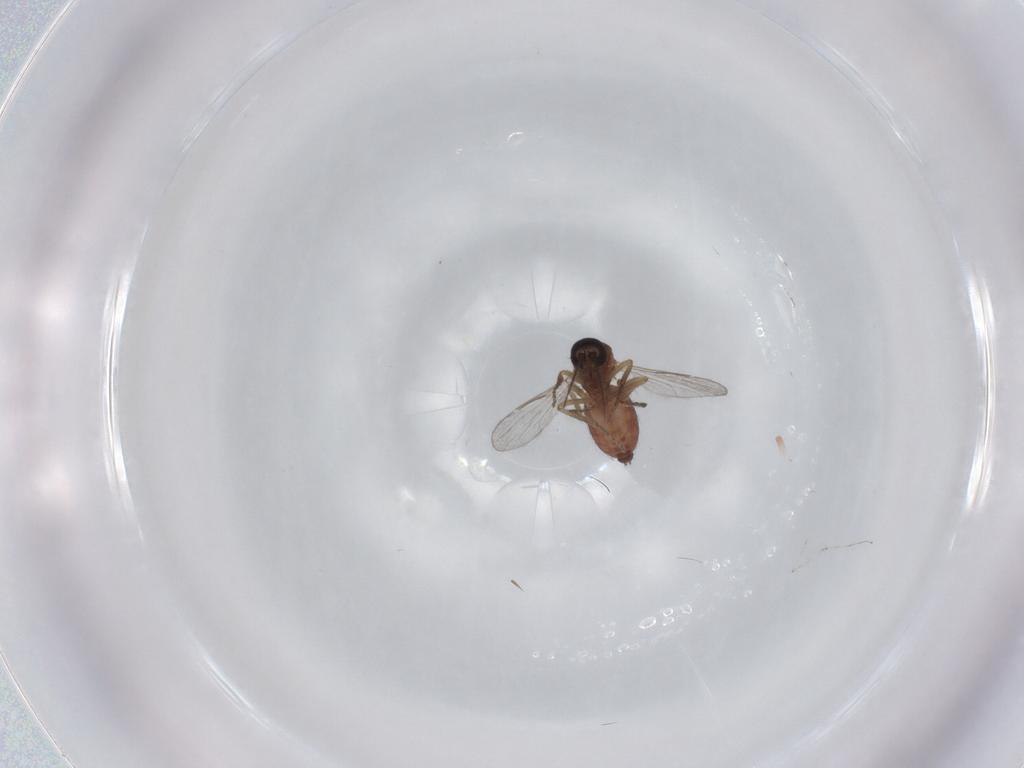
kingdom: Animalia
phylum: Arthropoda
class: Insecta
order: Diptera
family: Ceratopogonidae
